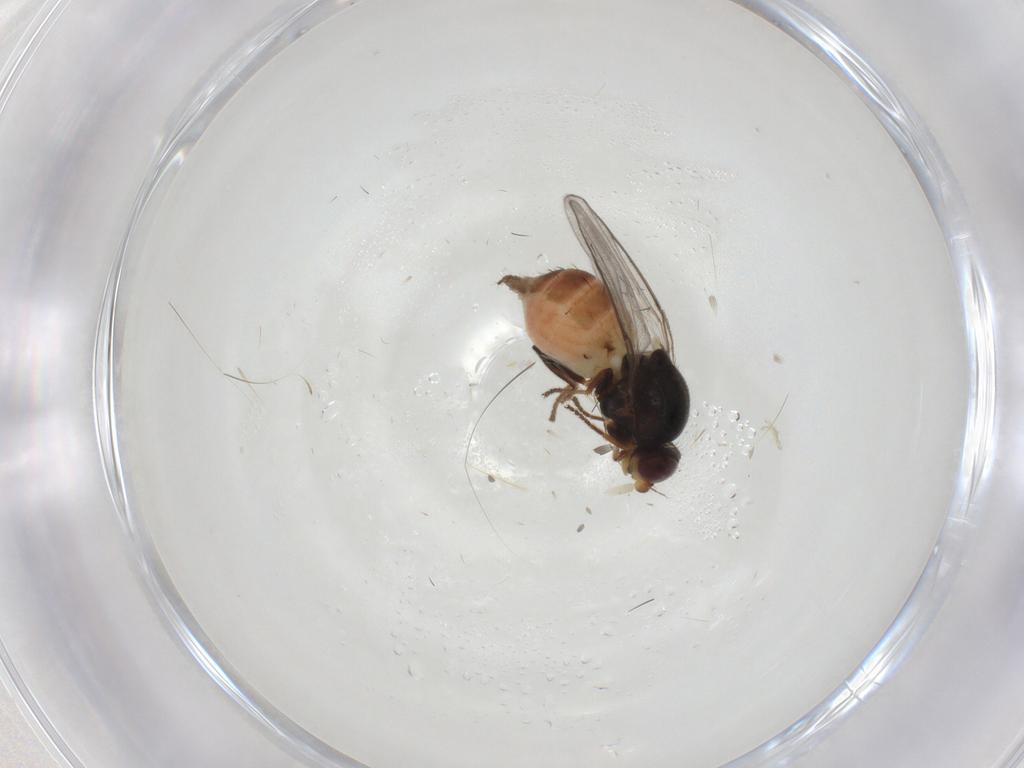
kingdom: Animalia
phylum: Arthropoda
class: Insecta
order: Diptera
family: Chloropidae
